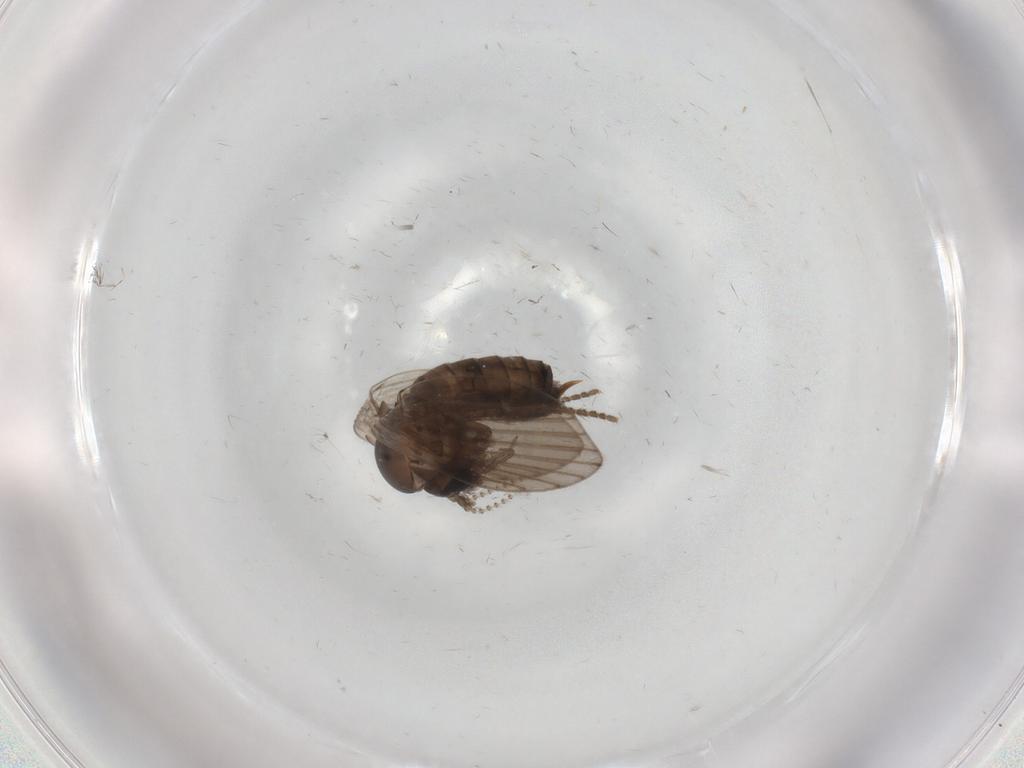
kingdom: Animalia
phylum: Arthropoda
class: Insecta
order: Diptera
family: Psychodidae
